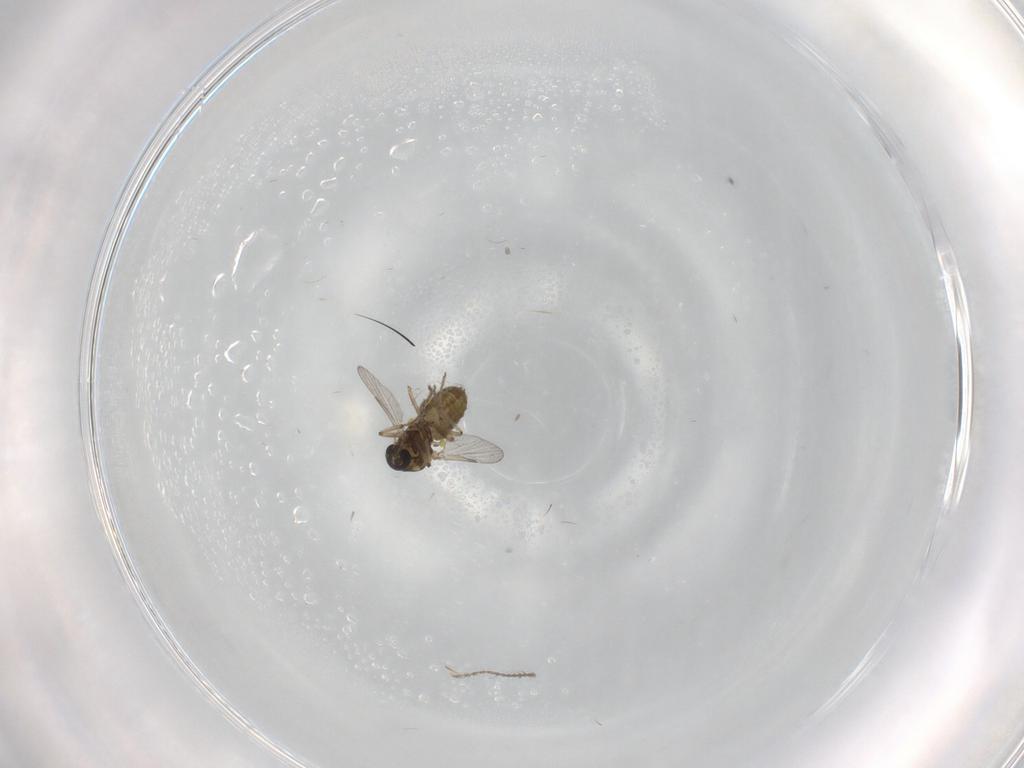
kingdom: Animalia
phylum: Arthropoda
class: Insecta
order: Diptera
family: Ceratopogonidae
